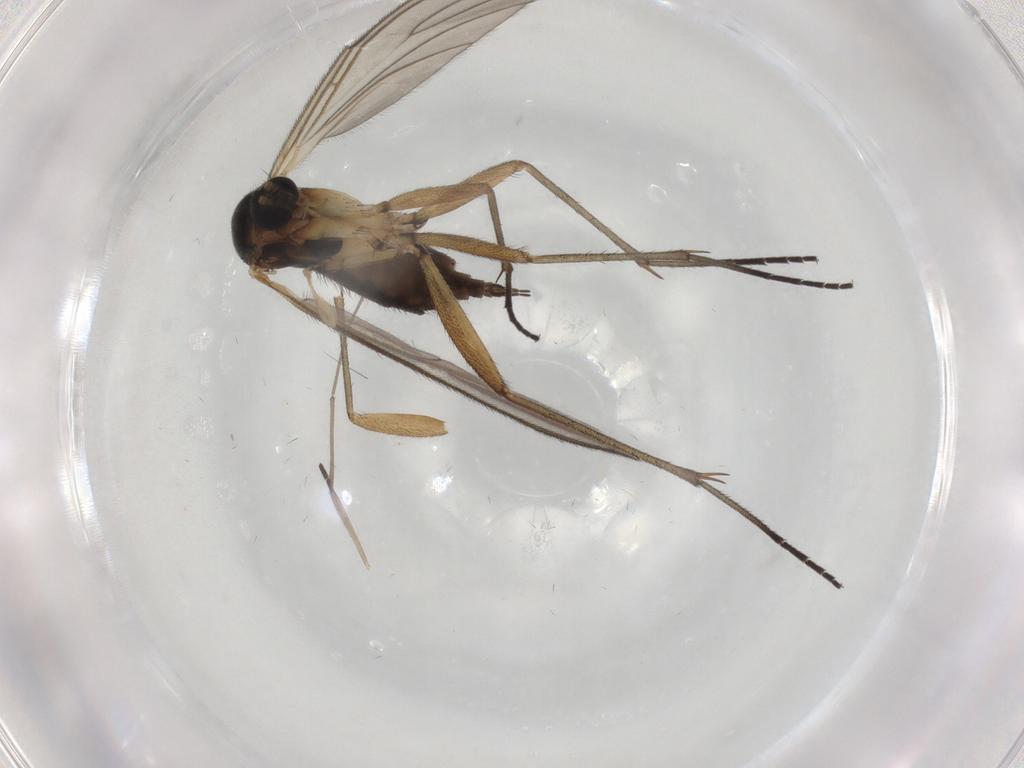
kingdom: Animalia
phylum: Arthropoda
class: Insecta
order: Diptera
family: Sciaridae
